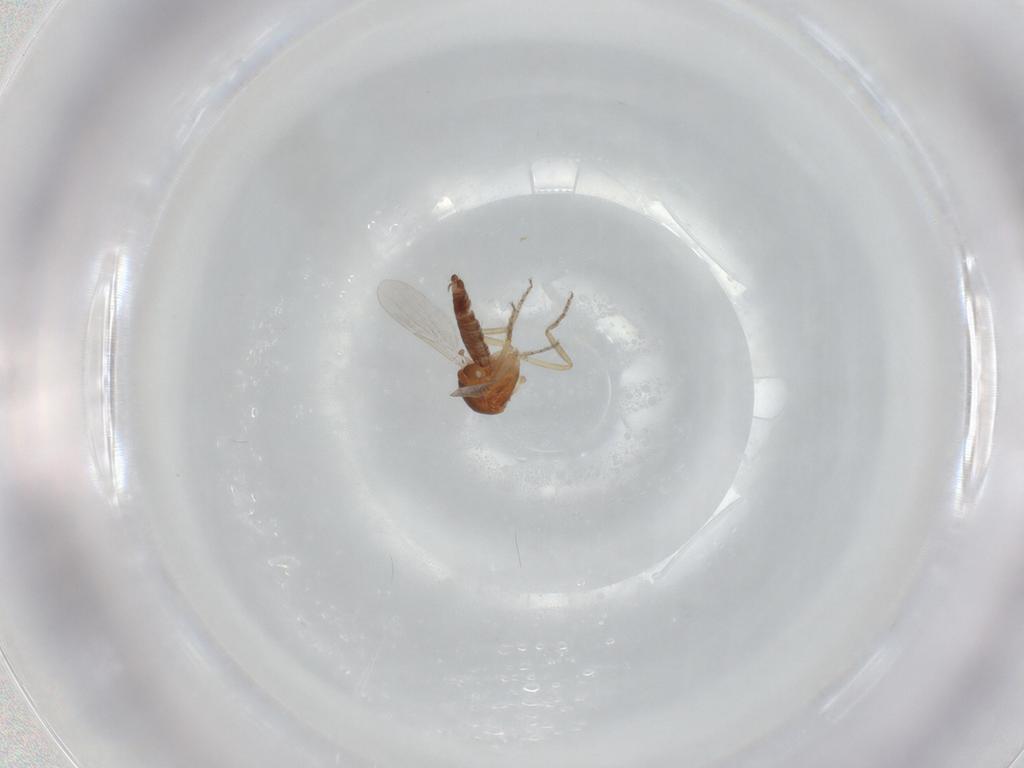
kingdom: Animalia
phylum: Arthropoda
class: Insecta
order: Diptera
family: Ceratopogonidae
